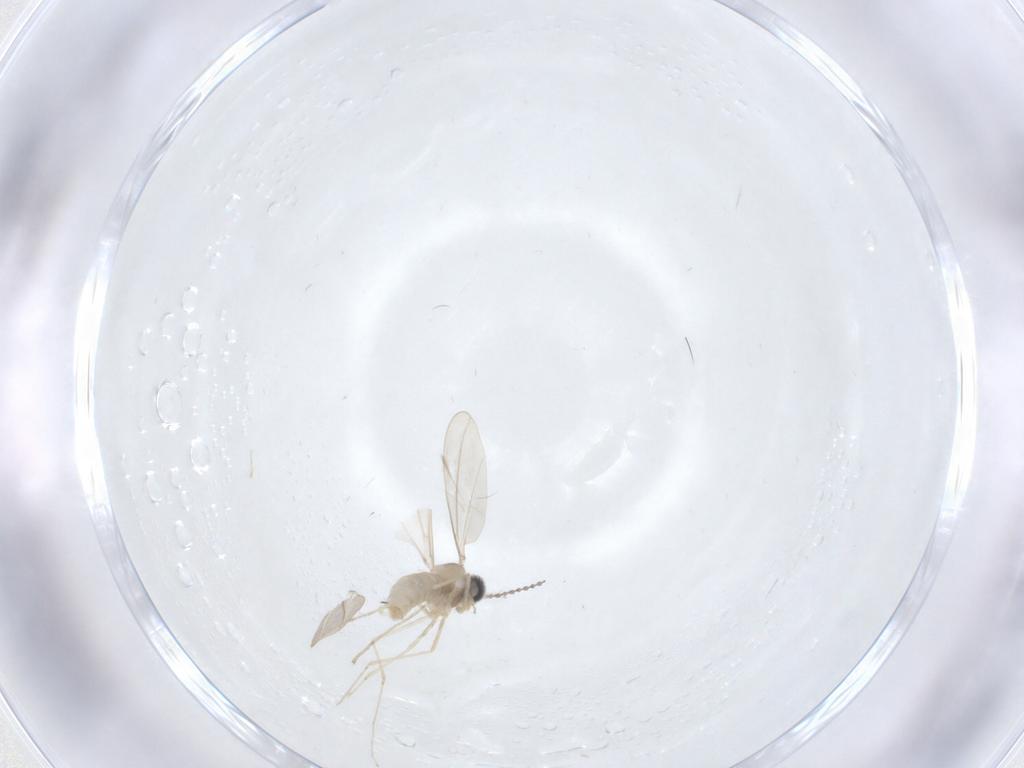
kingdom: Animalia
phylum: Arthropoda
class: Insecta
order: Diptera
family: Cecidomyiidae
